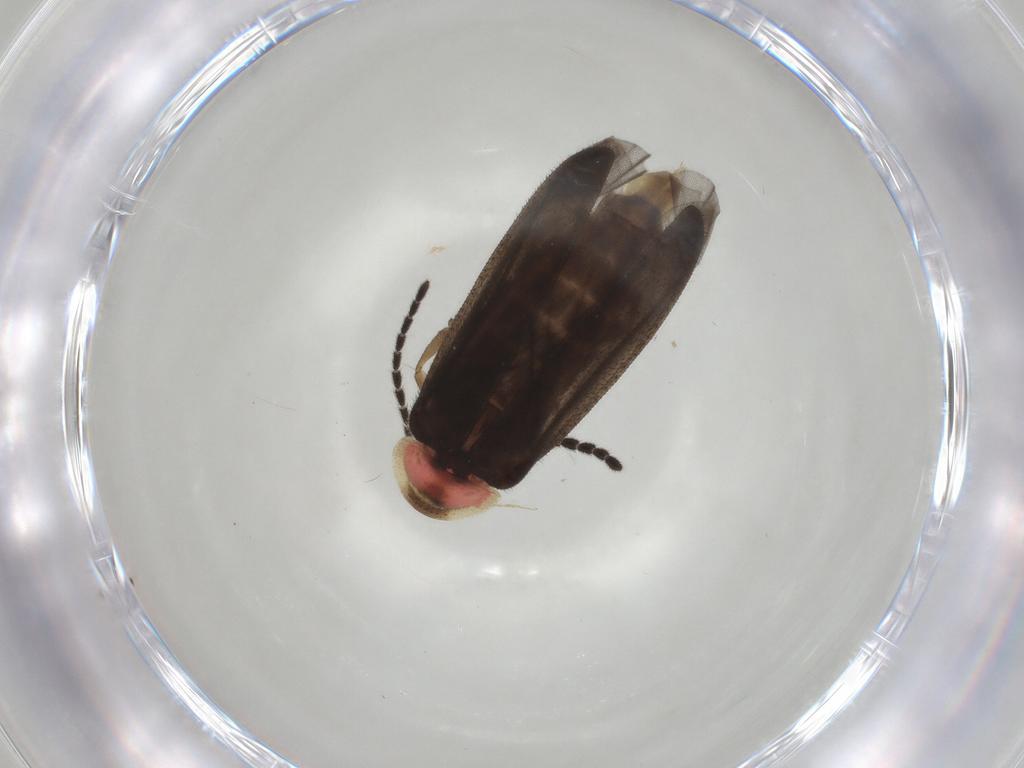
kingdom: Animalia
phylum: Arthropoda
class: Insecta
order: Coleoptera
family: Lampyridae
